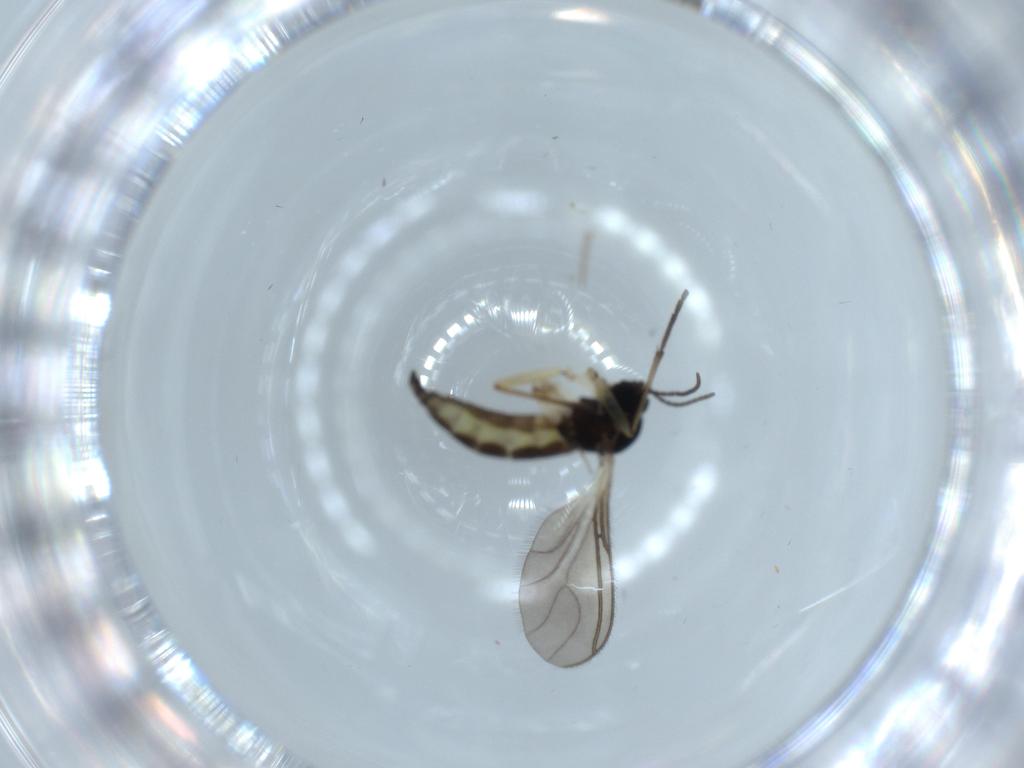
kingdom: Animalia
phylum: Arthropoda
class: Insecta
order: Diptera
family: Sciaridae
